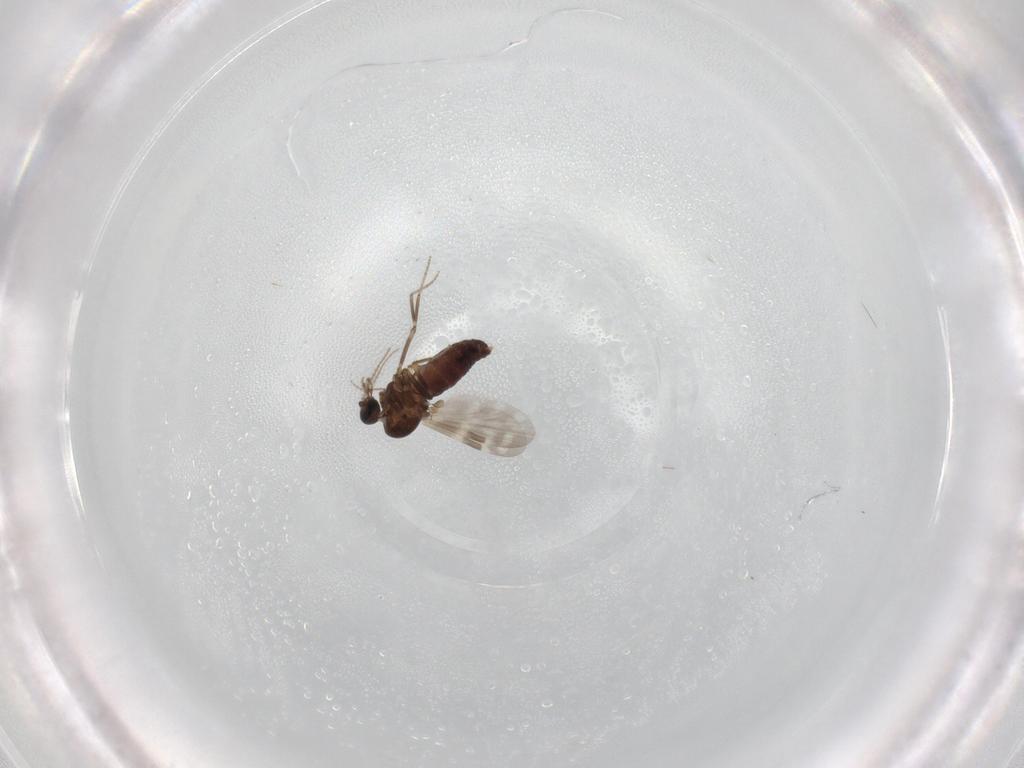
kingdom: Animalia
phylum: Arthropoda
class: Insecta
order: Diptera
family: Ceratopogonidae
